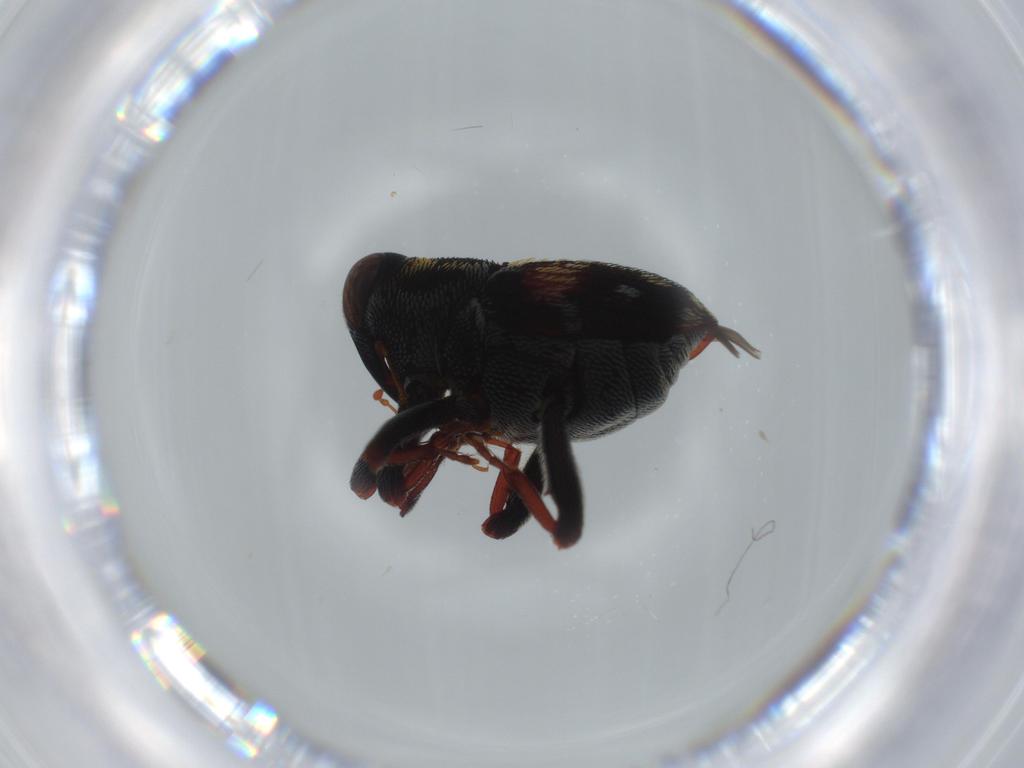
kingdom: Animalia
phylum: Arthropoda
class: Insecta
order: Coleoptera
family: Curculionidae
